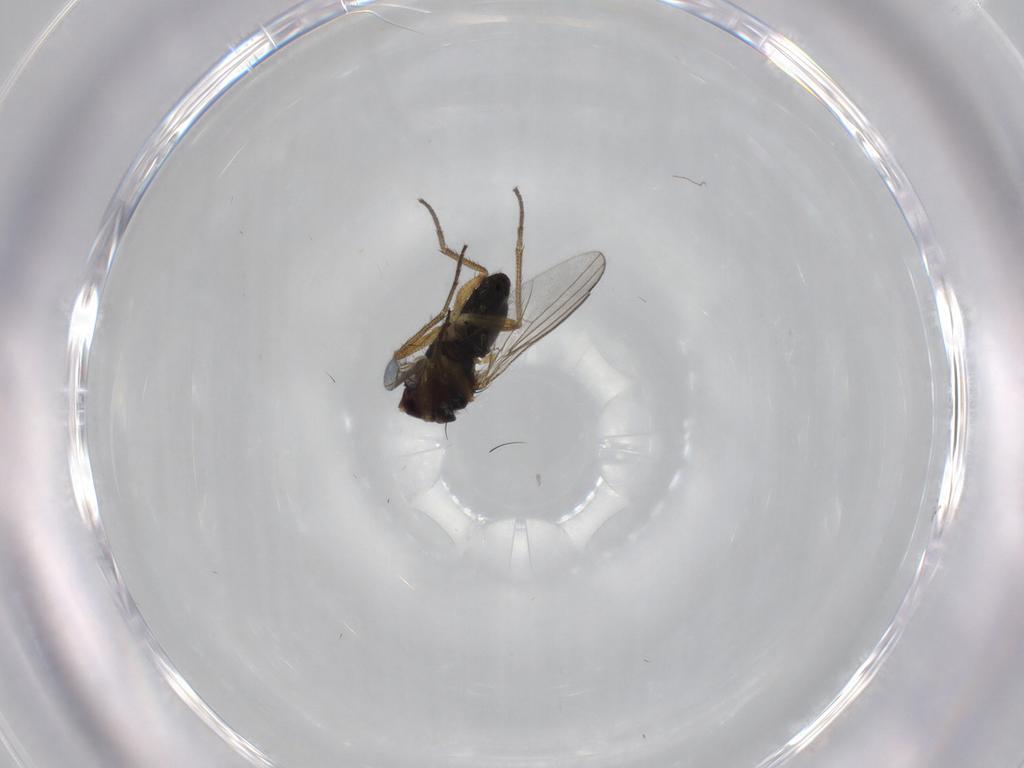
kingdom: Animalia
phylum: Arthropoda
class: Insecta
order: Diptera
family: Dolichopodidae
